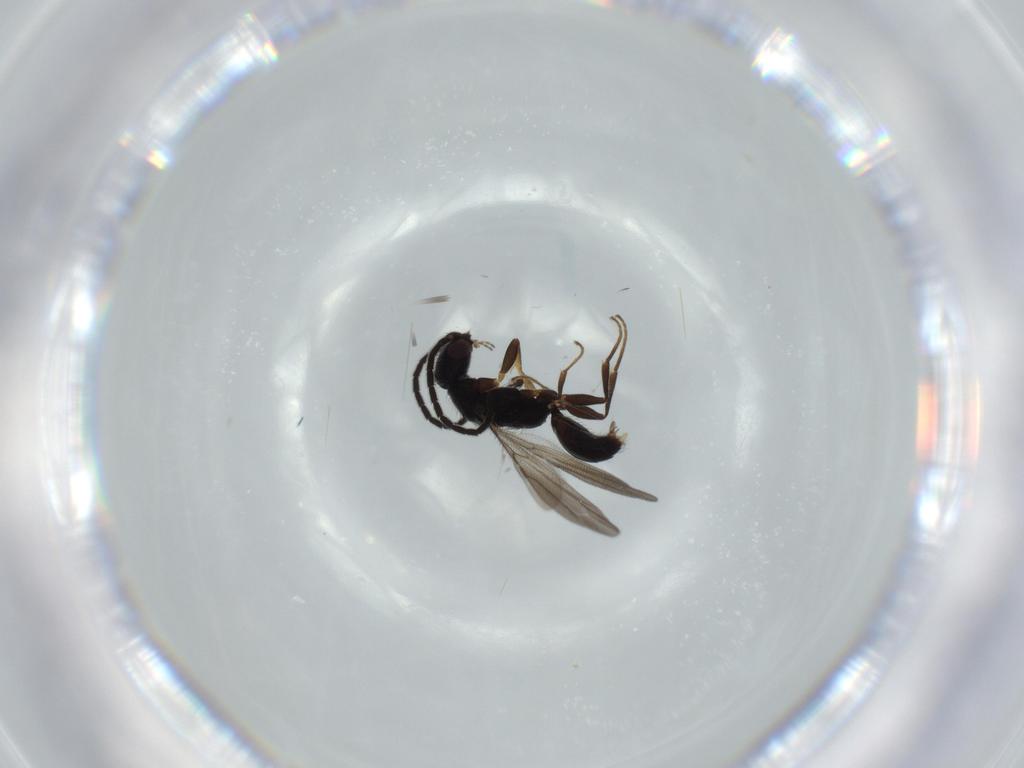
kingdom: Animalia
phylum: Arthropoda
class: Insecta
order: Hymenoptera
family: Bethylidae
